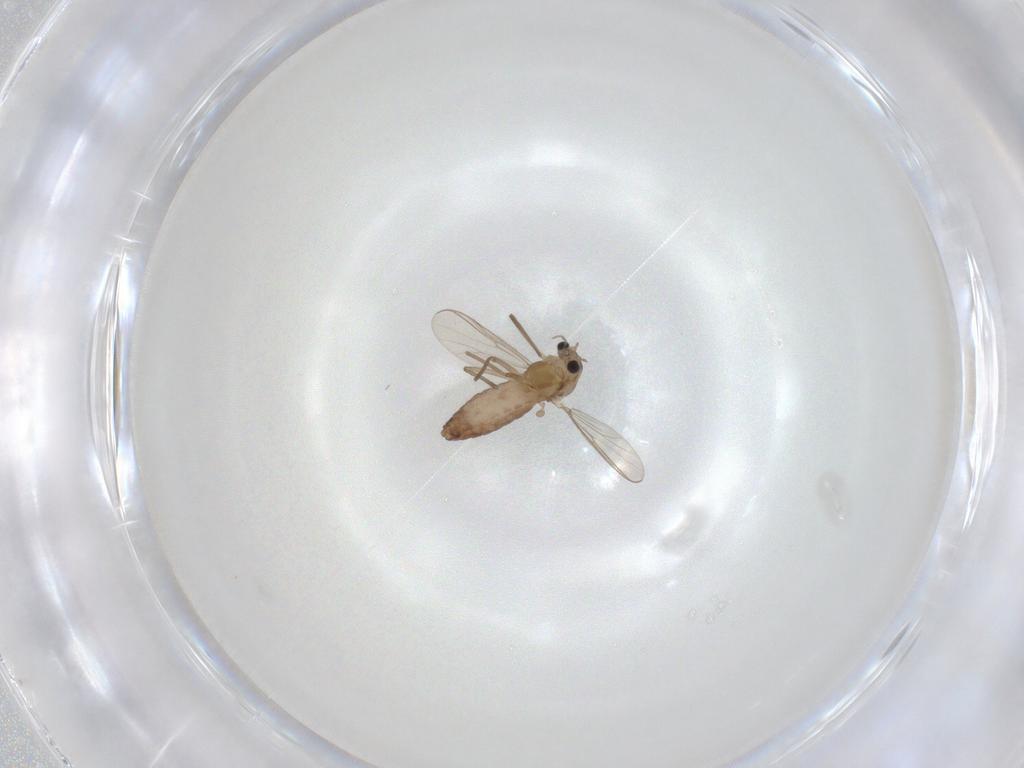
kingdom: Animalia
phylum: Arthropoda
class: Insecta
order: Diptera
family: Chironomidae
